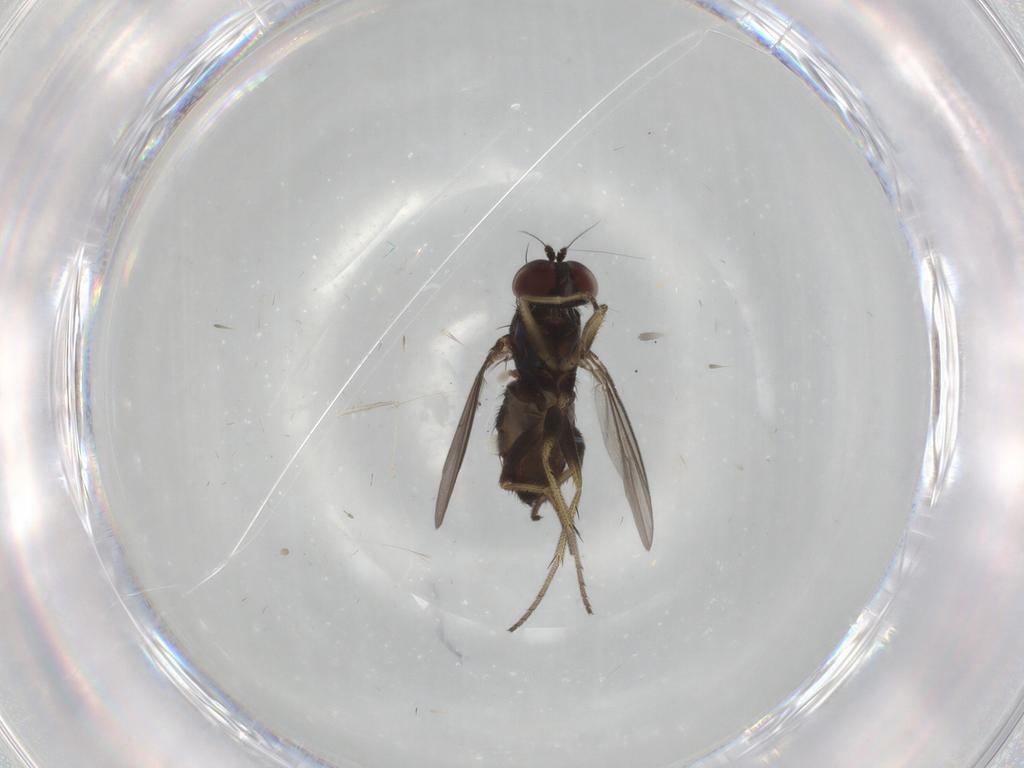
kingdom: Animalia
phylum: Arthropoda
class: Insecta
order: Diptera
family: Dolichopodidae
